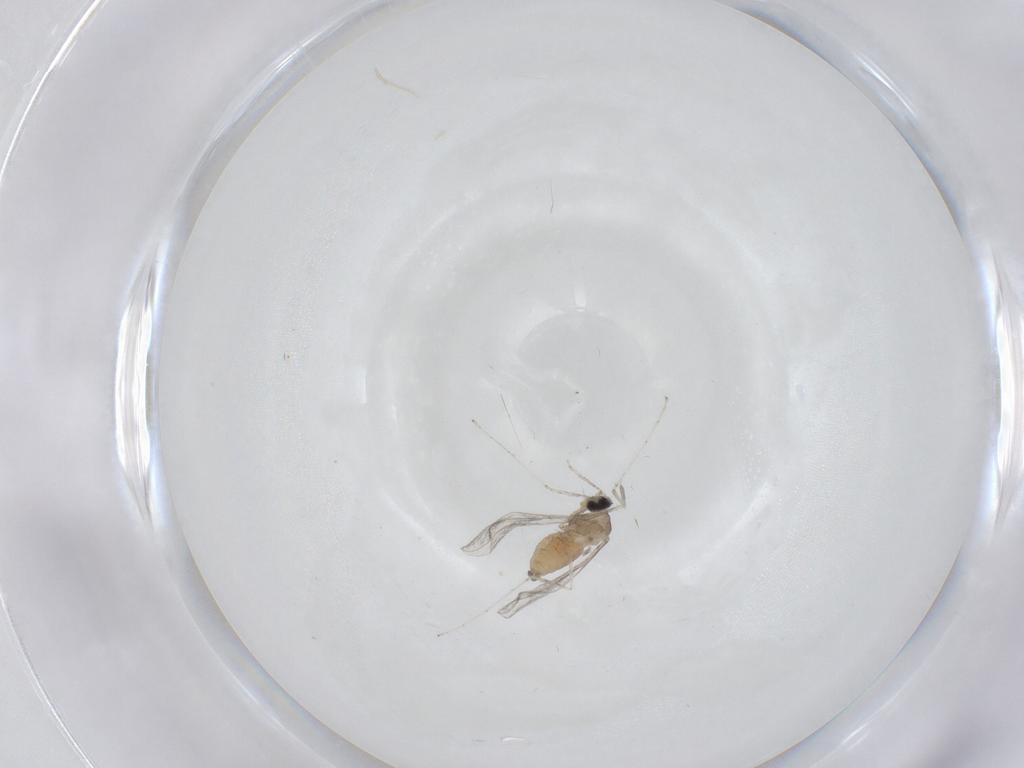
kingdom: Animalia
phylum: Arthropoda
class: Insecta
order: Diptera
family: Cecidomyiidae
